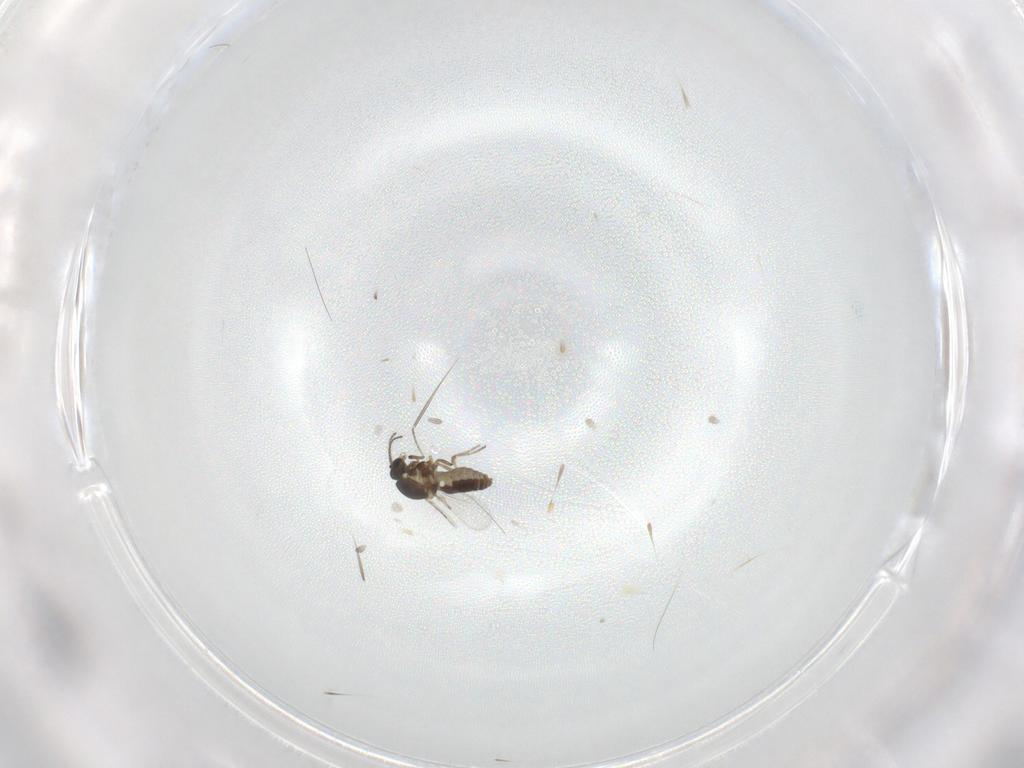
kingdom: Animalia
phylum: Arthropoda
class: Insecta
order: Diptera
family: Ceratopogonidae
